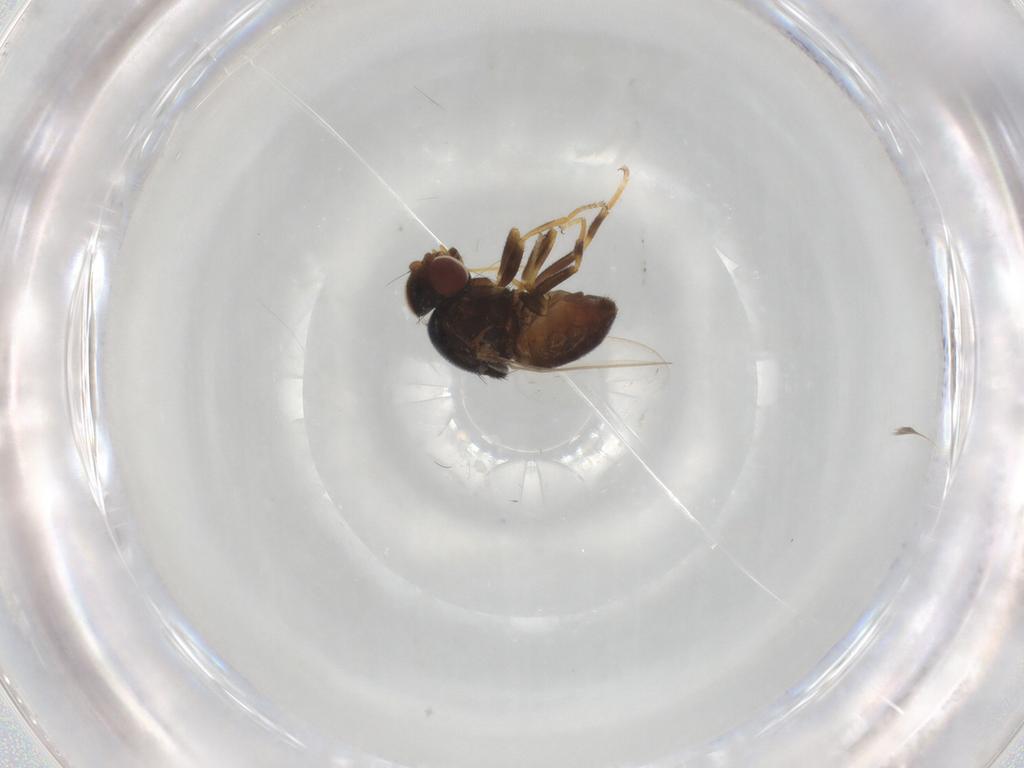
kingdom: Animalia
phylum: Arthropoda
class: Insecta
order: Diptera
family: Chloropidae
